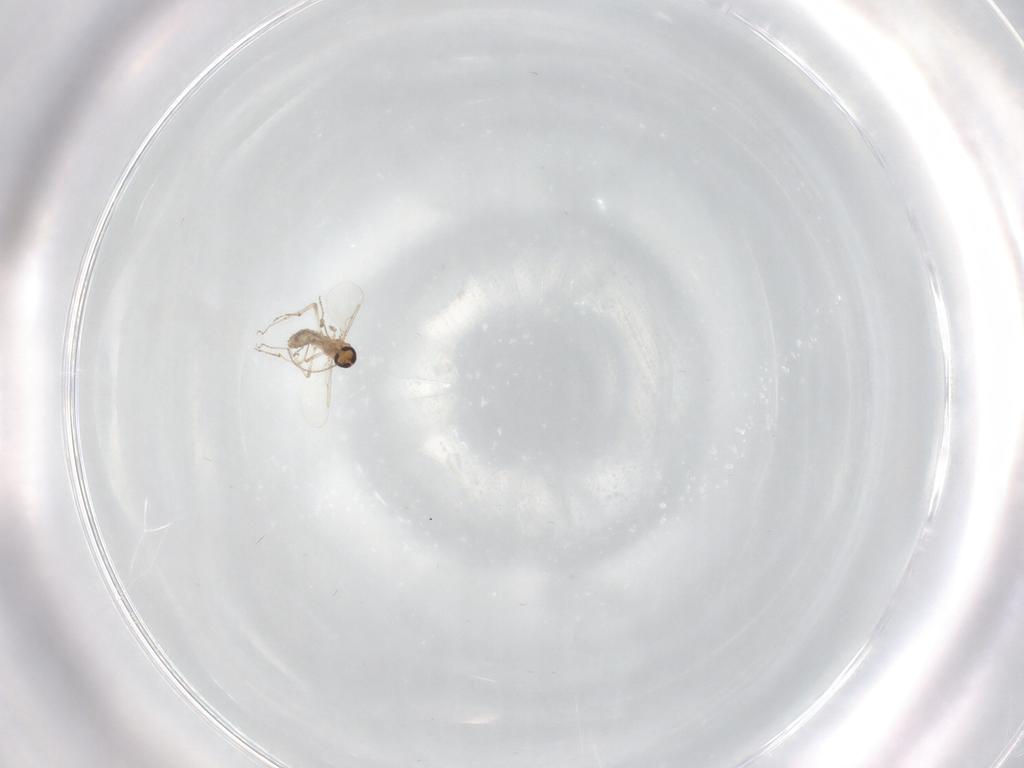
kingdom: Animalia
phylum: Arthropoda
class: Insecta
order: Diptera
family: Ceratopogonidae
